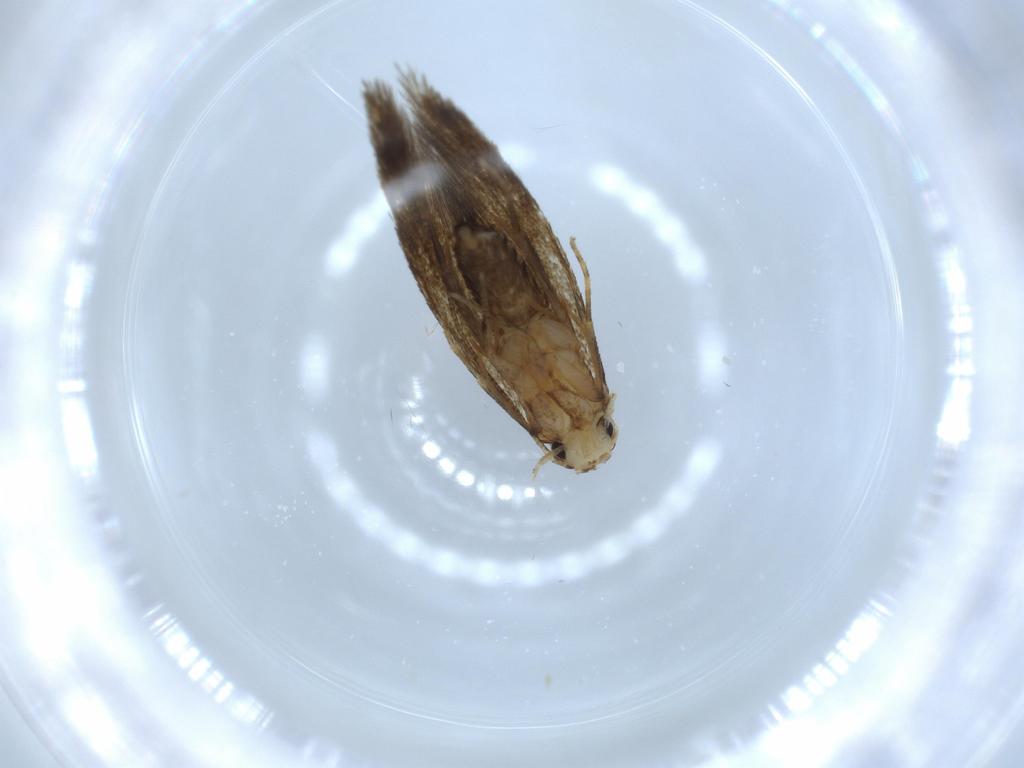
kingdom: Animalia
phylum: Arthropoda
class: Insecta
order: Lepidoptera
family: Tineidae
